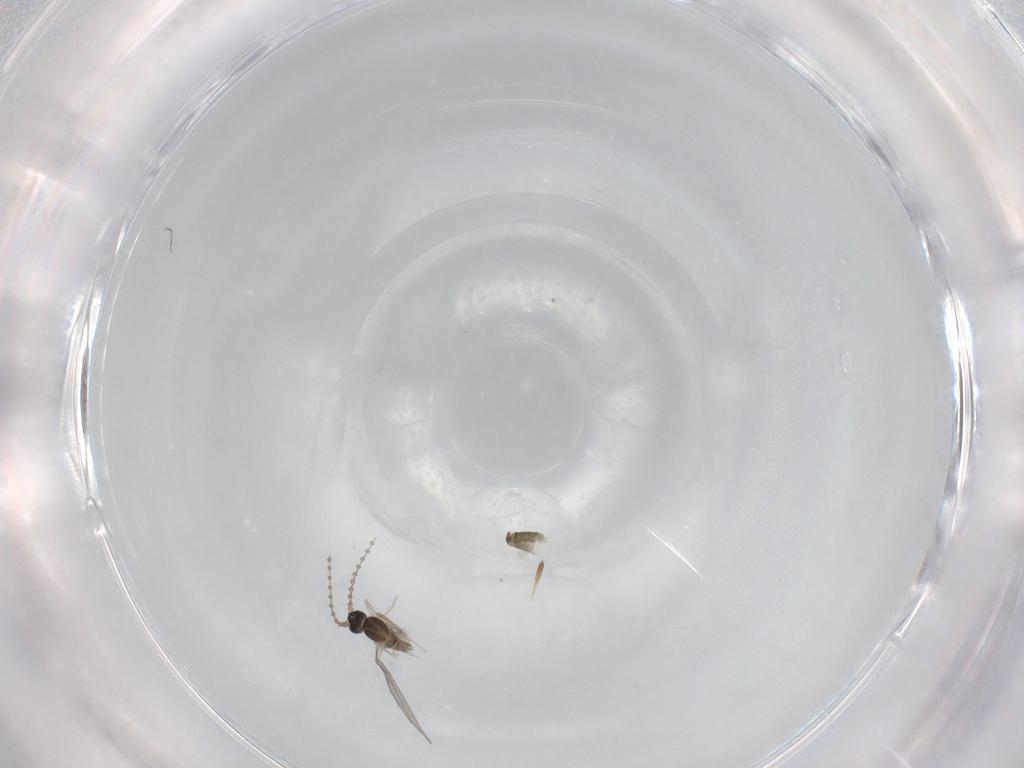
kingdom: Animalia
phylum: Arthropoda
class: Insecta
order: Diptera
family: Cecidomyiidae
